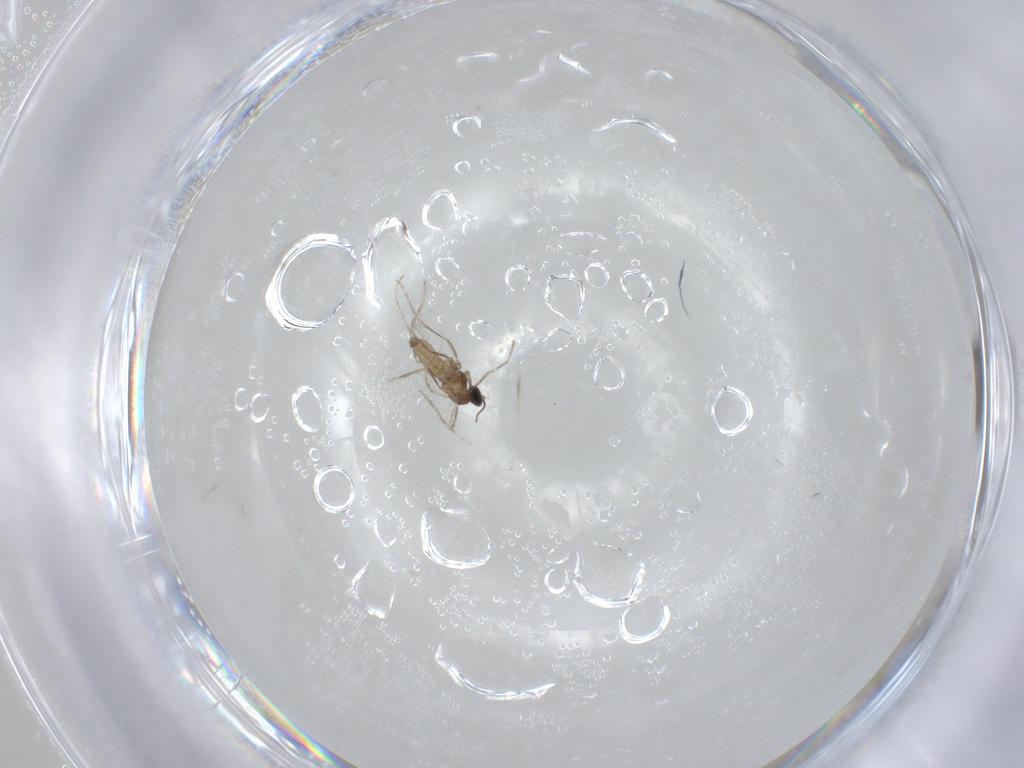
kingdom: Animalia
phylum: Arthropoda
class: Insecta
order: Diptera
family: Cecidomyiidae
